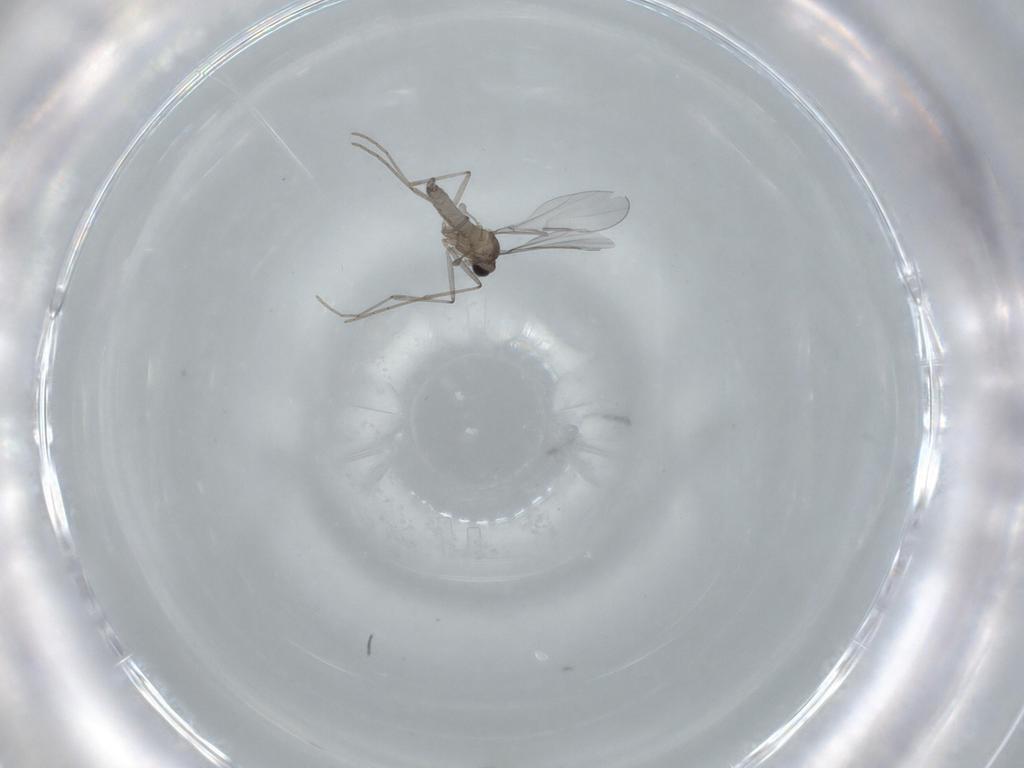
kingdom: Animalia
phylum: Arthropoda
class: Insecta
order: Diptera
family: Cecidomyiidae
